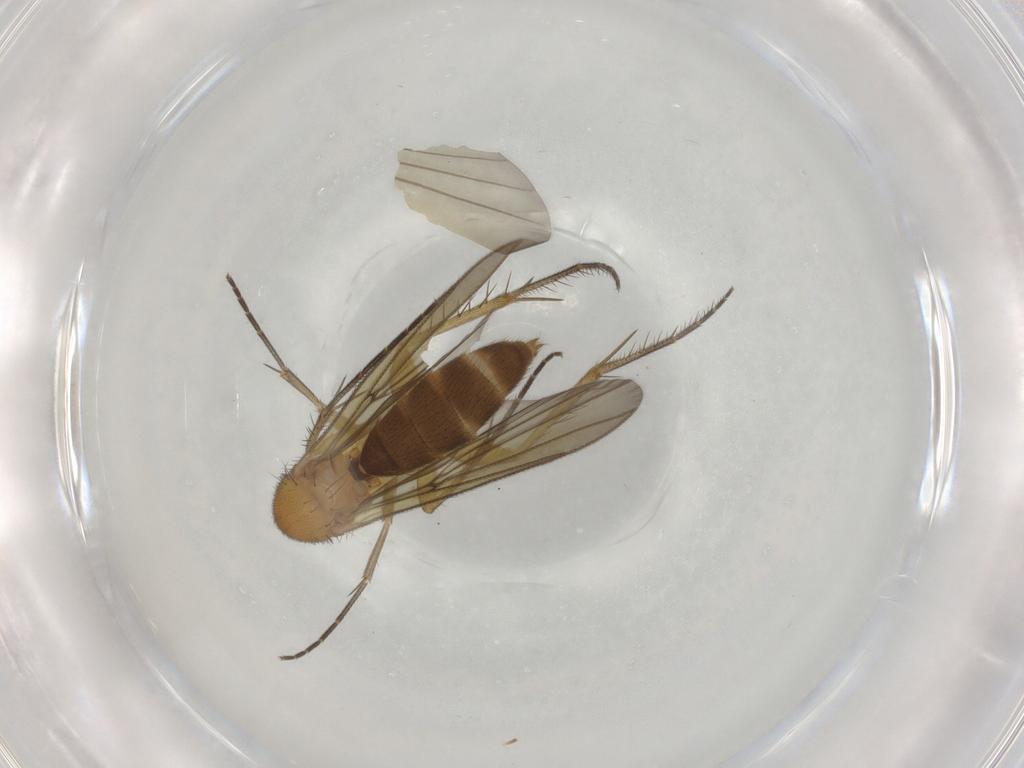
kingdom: Animalia
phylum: Arthropoda
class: Insecta
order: Diptera
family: Mycetophilidae
